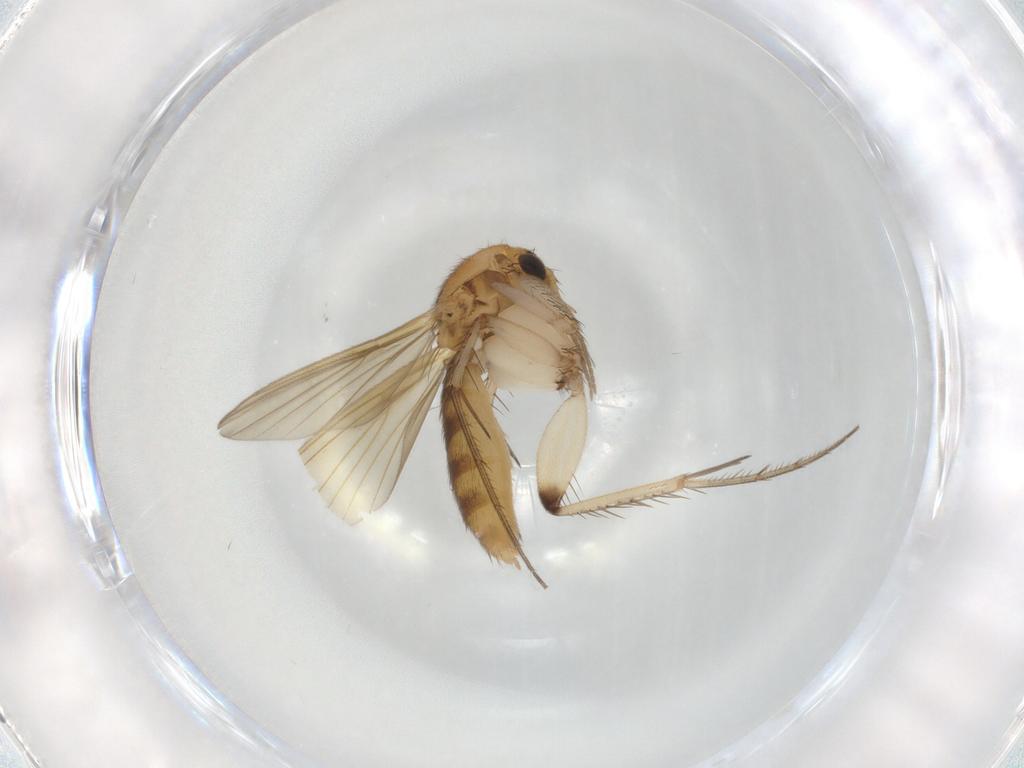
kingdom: Animalia
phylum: Arthropoda
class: Insecta
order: Diptera
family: Mycetophilidae
